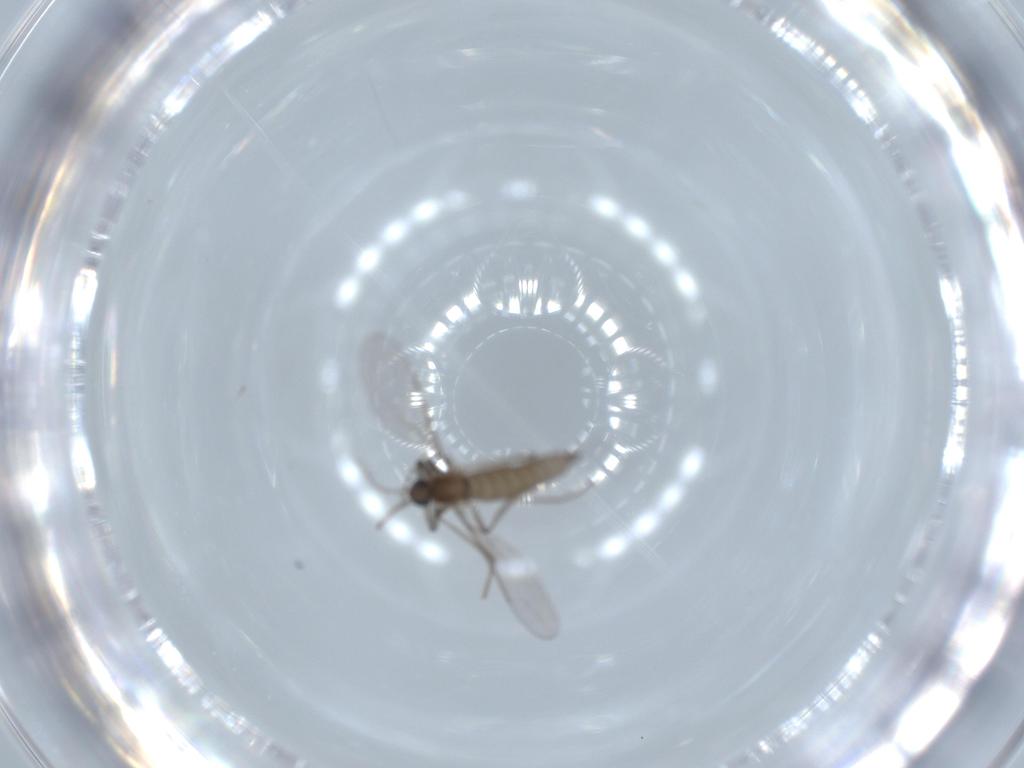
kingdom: Animalia
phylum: Arthropoda
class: Insecta
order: Diptera
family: Cecidomyiidae
